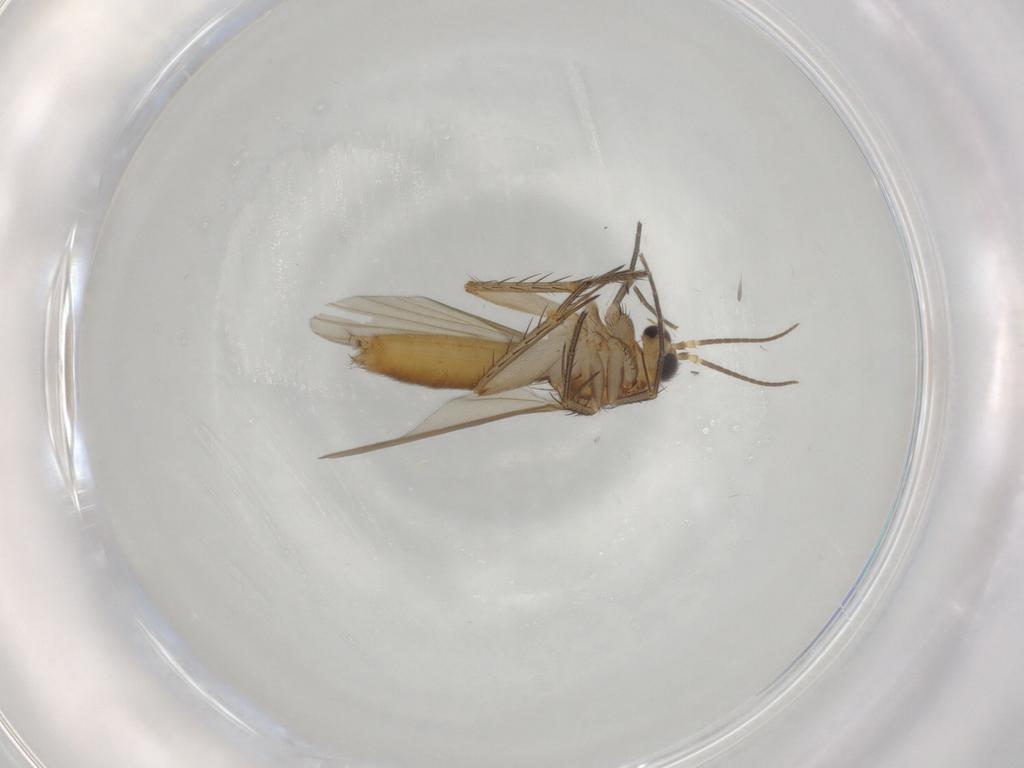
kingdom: Animalia
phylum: Arthropoda
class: Insecta
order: Diptera
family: Mycetophilidae
